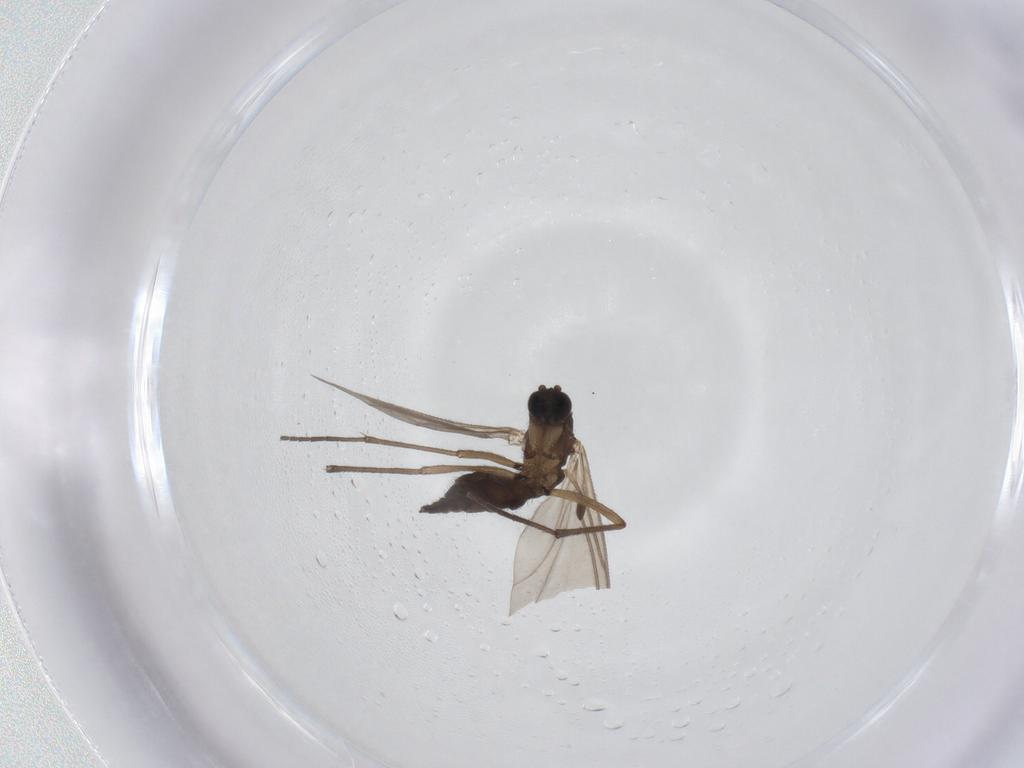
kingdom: Animalia
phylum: Arthropoda
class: Insecta
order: Diptera
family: Sciaridae
